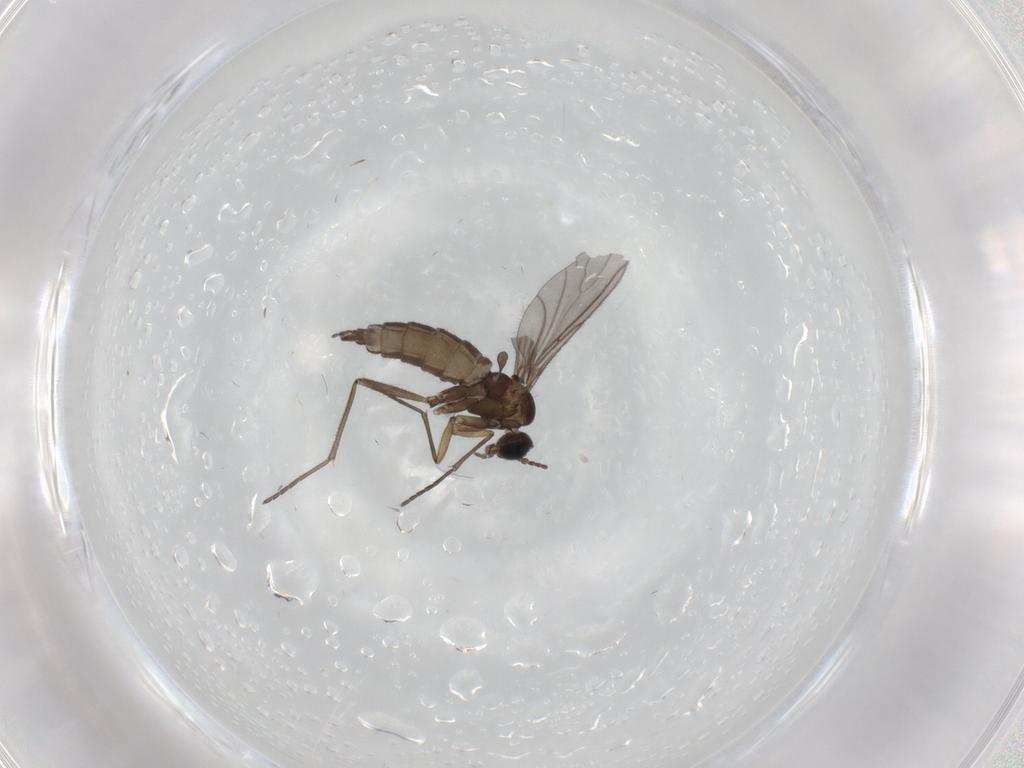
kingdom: Animalia
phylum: Arthropoda
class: Insecta
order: Diptera
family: Sciaridae
